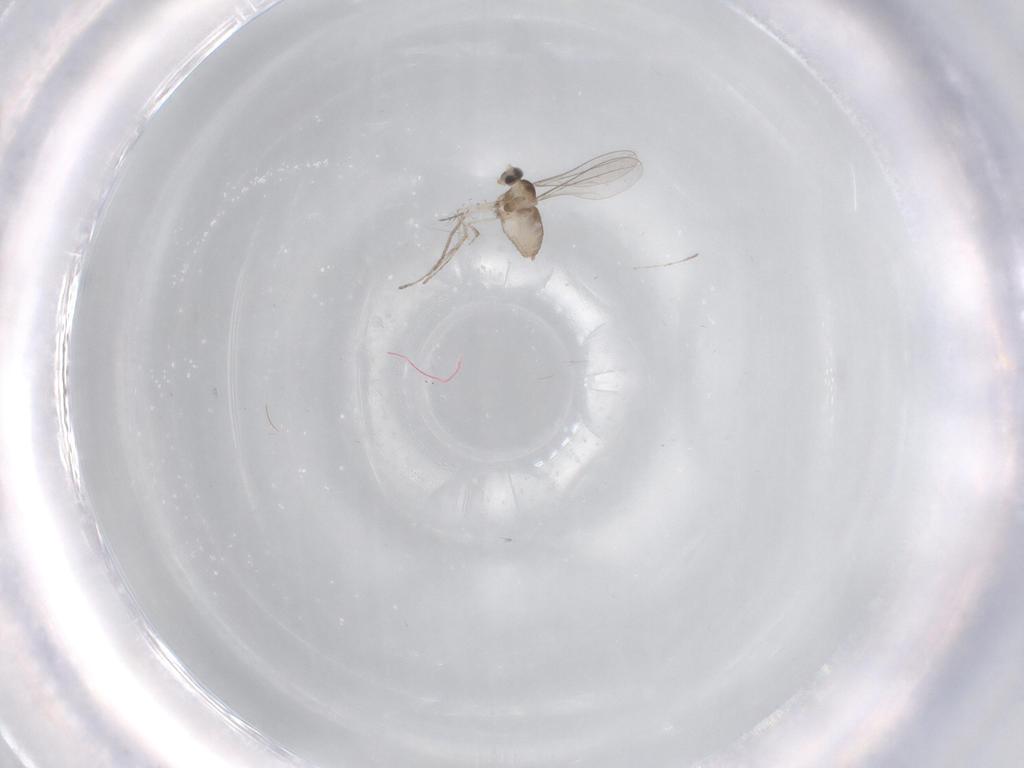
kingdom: Animalia
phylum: Arthropoda
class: Insecta
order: Diptera
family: Cecidomyiidae
